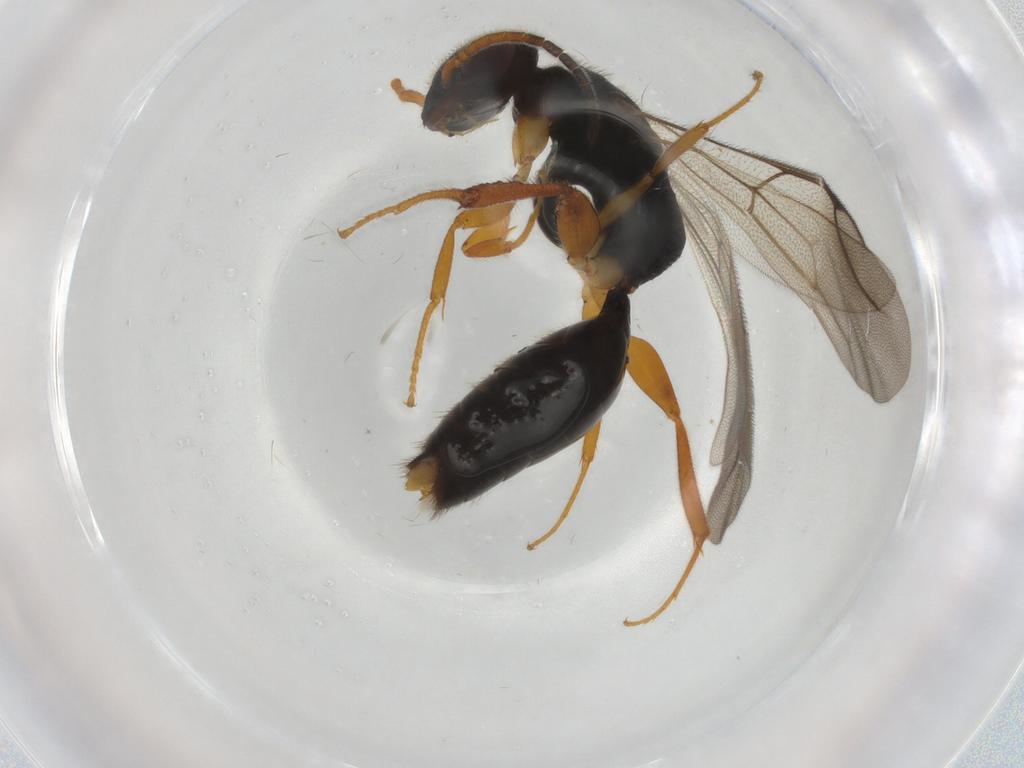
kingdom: Animalia
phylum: Arthropoda
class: Insecta
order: Hymenoptera
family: Bethylidae
